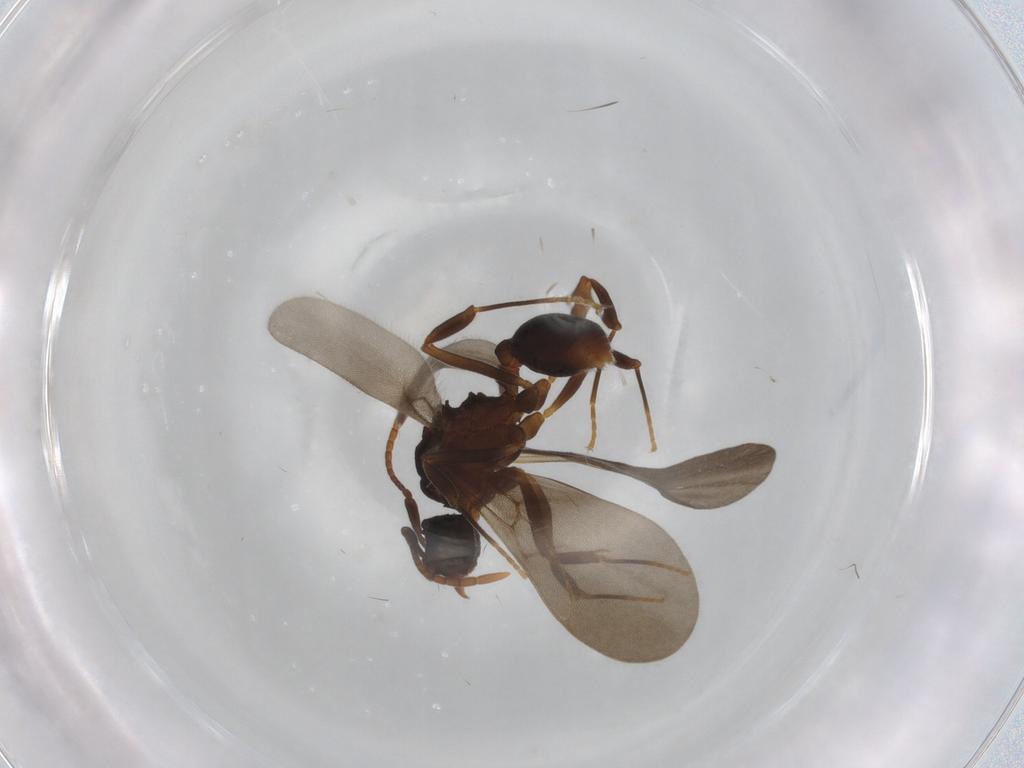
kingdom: Animalia
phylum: Arthropoda
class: Insecta
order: Hymenoptera
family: Formicidae
